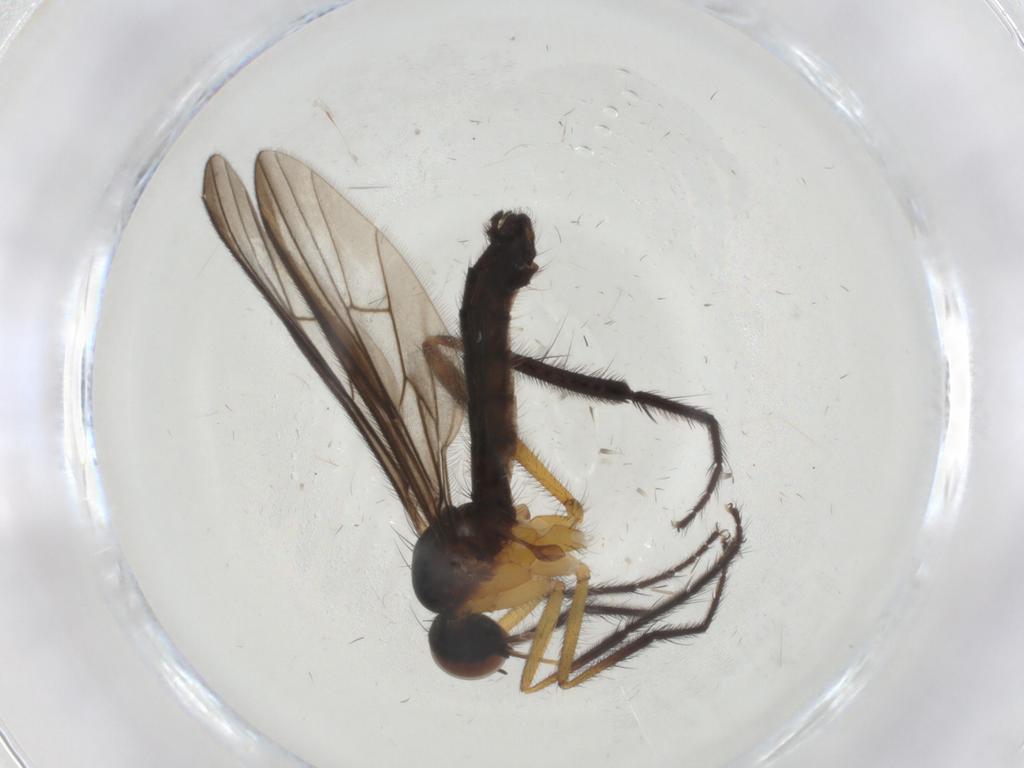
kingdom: Animalia
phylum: Arthropoda
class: Insecta
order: Diptera
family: Empididae
